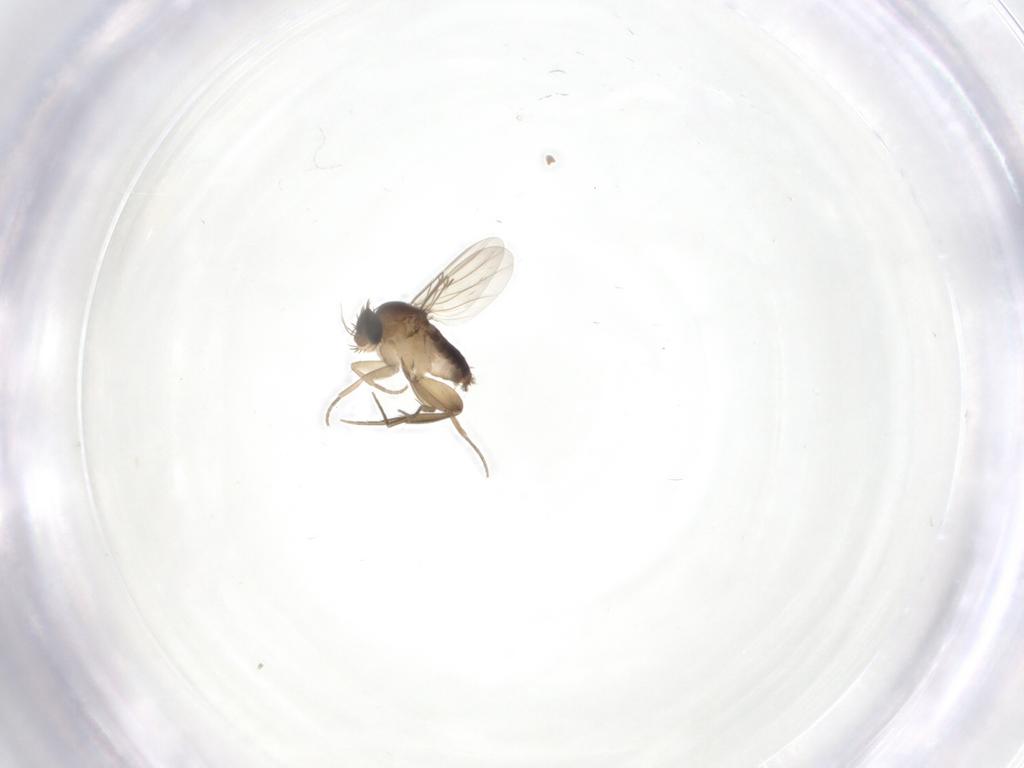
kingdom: Animalia
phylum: Arthropoda
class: Insecta
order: Diptera
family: Phoridae
